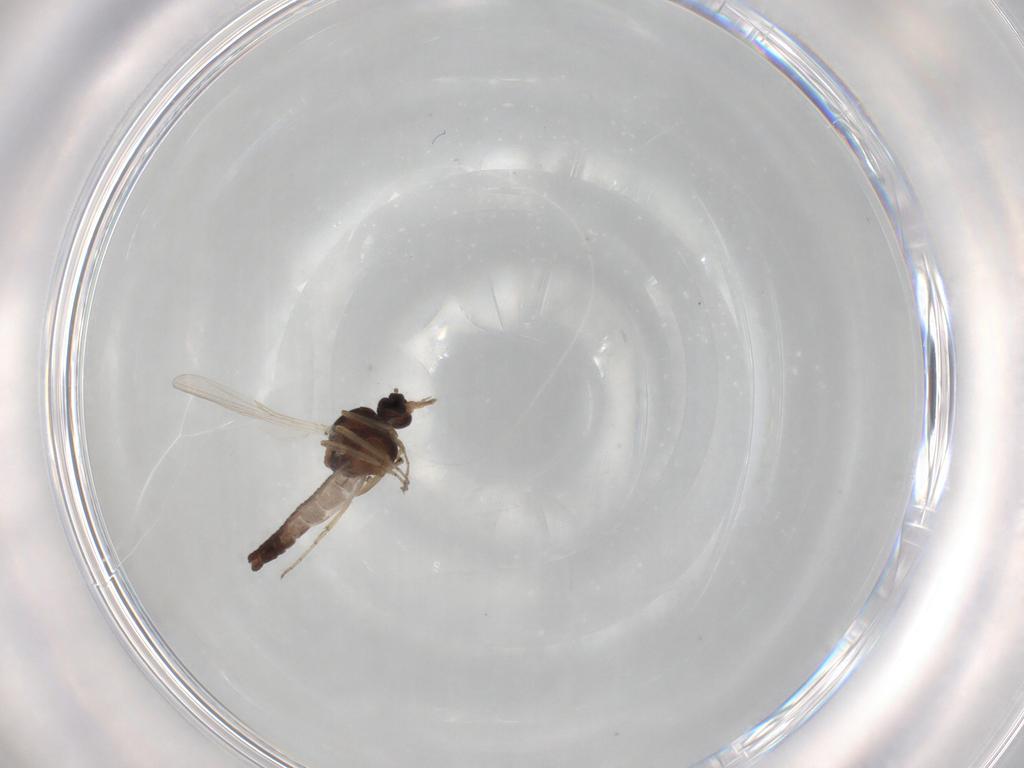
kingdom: Animalia
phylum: Arthropoda
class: Insecta
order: Diptera
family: Ceratopogonidae
